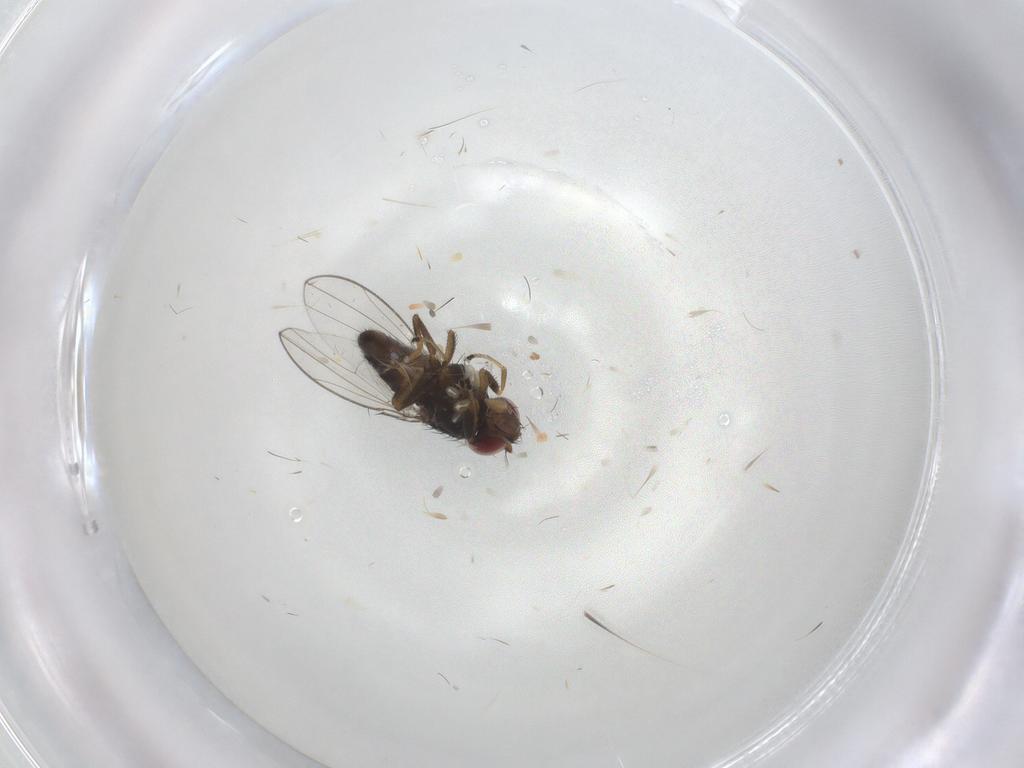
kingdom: Animalia
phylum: Arthropoda
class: Insecta
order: Diptera
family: Ephydridae
